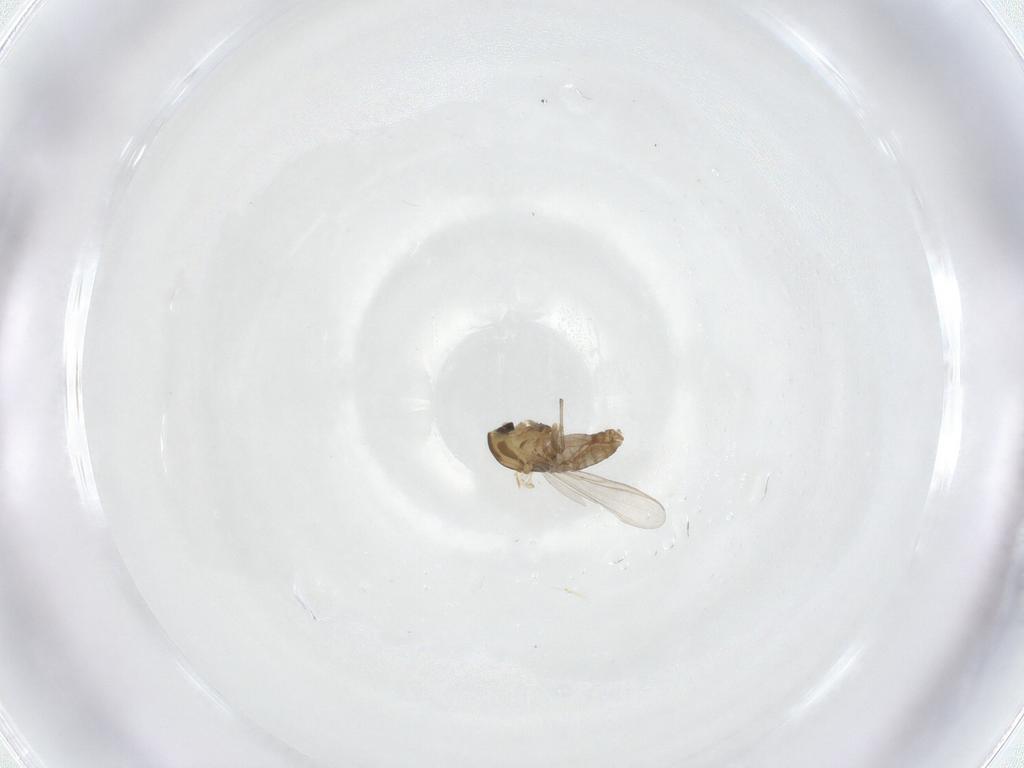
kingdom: Animalia
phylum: Arthropoda
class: Insecta
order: Diptera
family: Chironomidae
